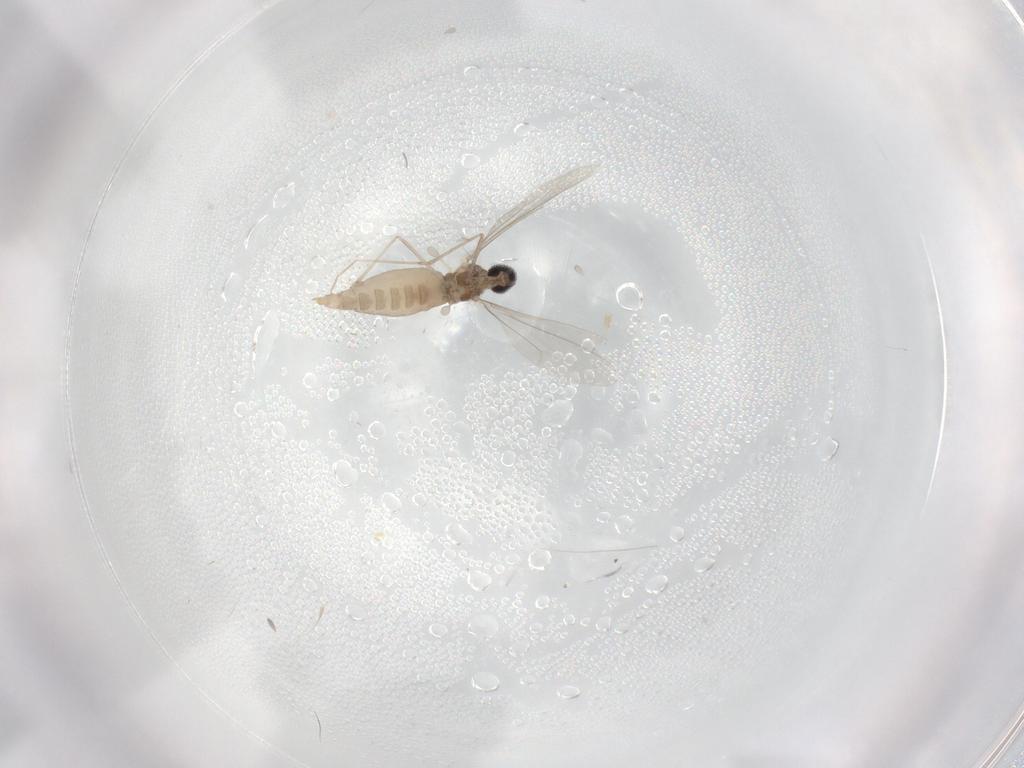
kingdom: Animalia
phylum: Arthropoda
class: Insecta
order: Diptera
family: Cecidomyiidae
